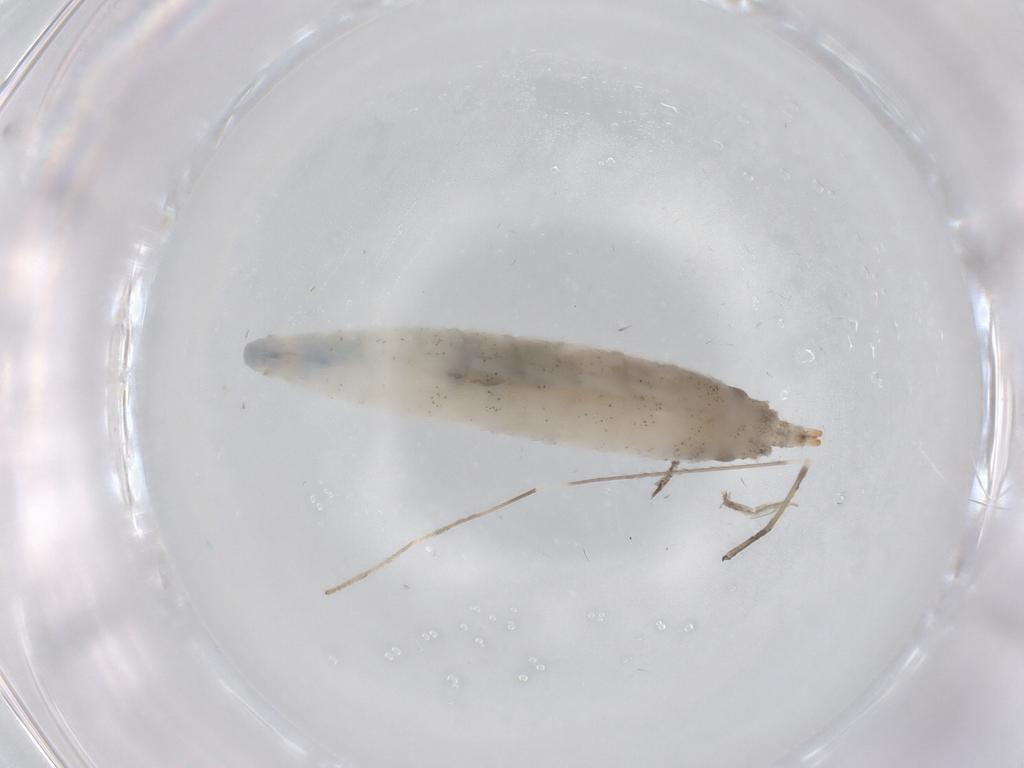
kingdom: Animalia
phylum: Arthropoda
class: Insecta
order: Diptera
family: Drosophilidae
